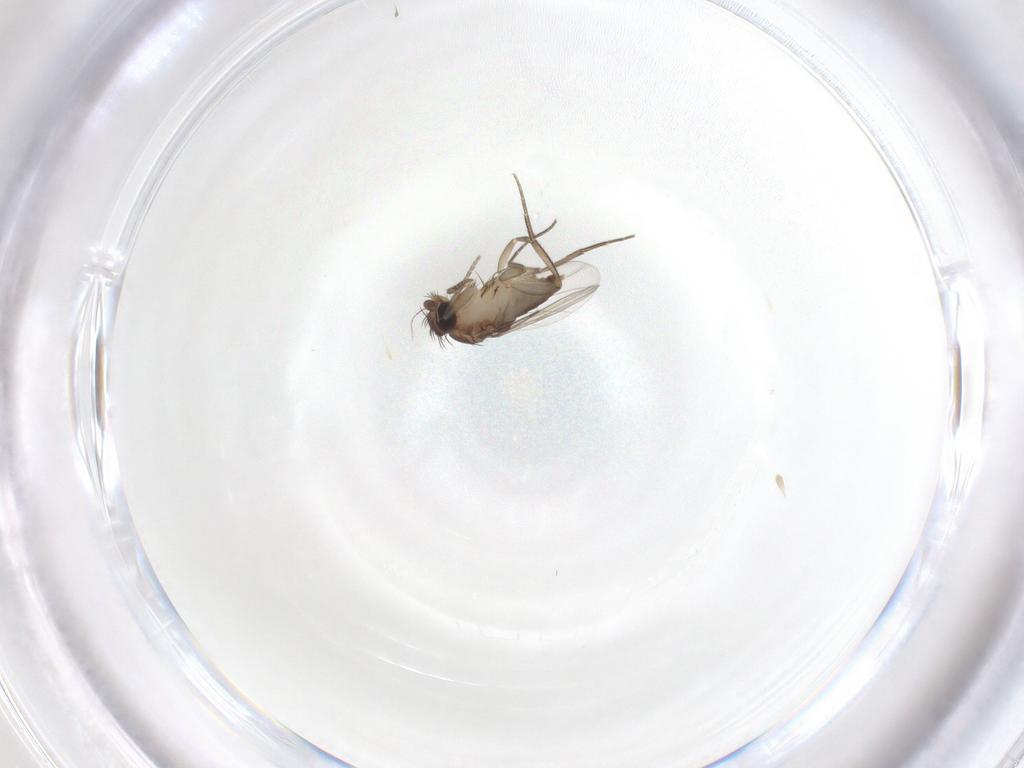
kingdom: Animalia
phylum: Arthropoda
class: Insecta
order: Diptera
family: Phoridae
